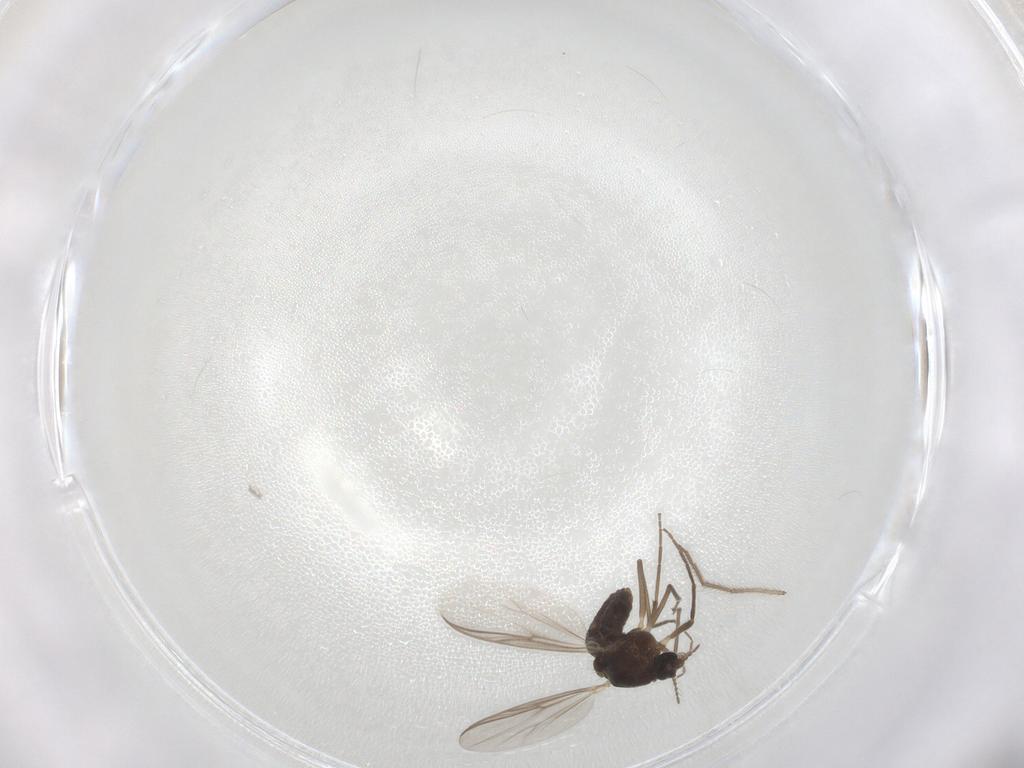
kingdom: Animalia
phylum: Arthropoda
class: Insecta
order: Diptera
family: Chironomidae
